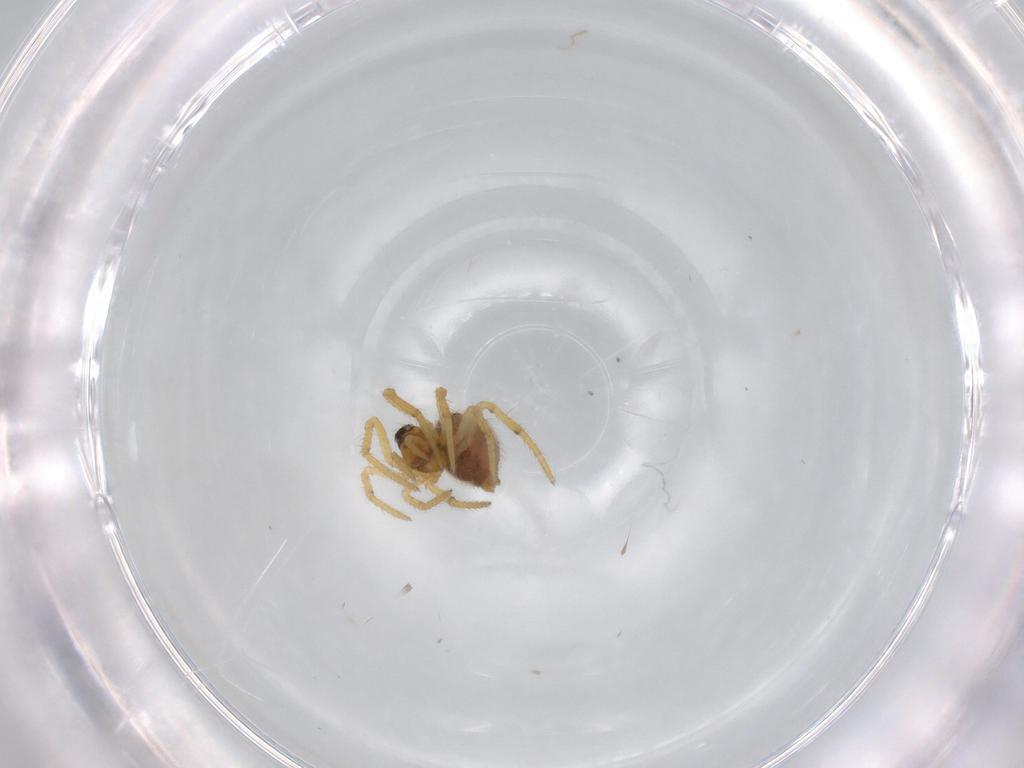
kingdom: Animalia
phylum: Arthropoda
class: Arachnida
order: Araneae
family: Theridiidae
